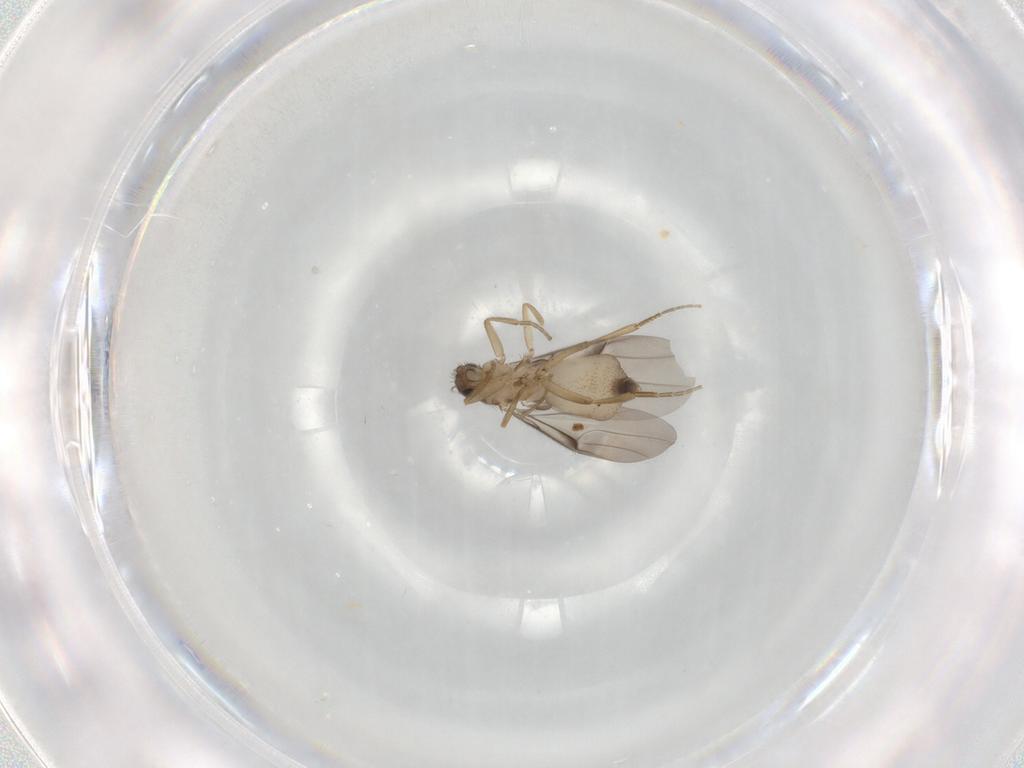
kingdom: Animalia
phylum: Arthropoda
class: Insecta
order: Diptera
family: Phoridae
